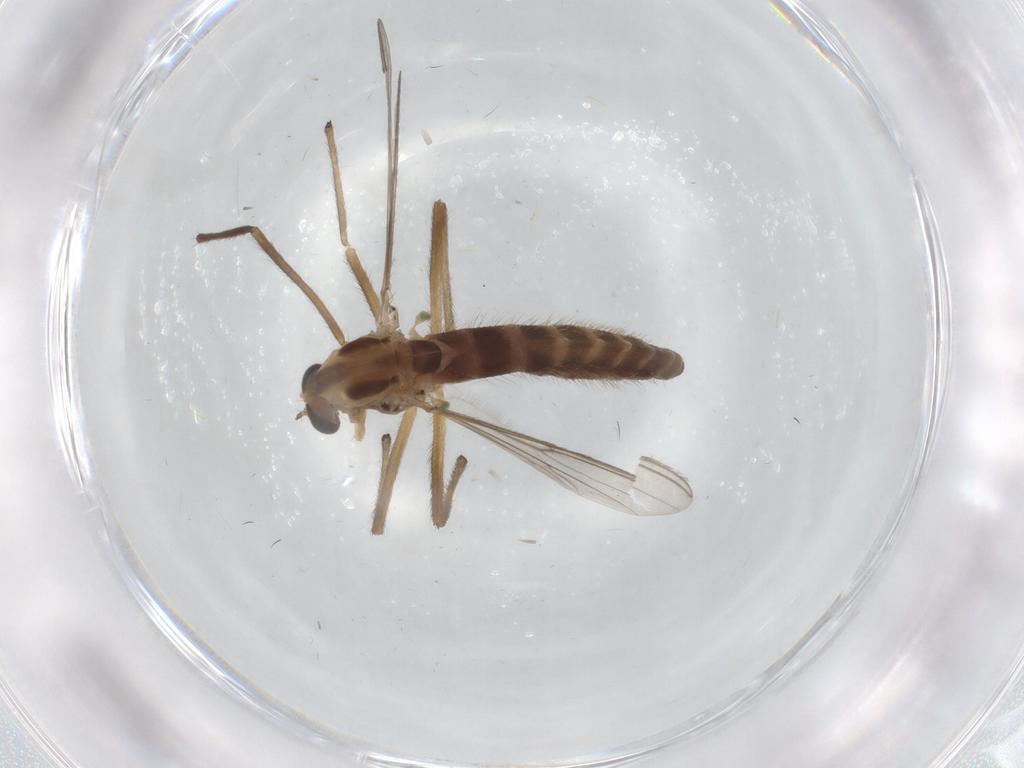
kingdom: Animalia
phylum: Arthropoda
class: Insecta
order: Diptera
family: Chironomidae
